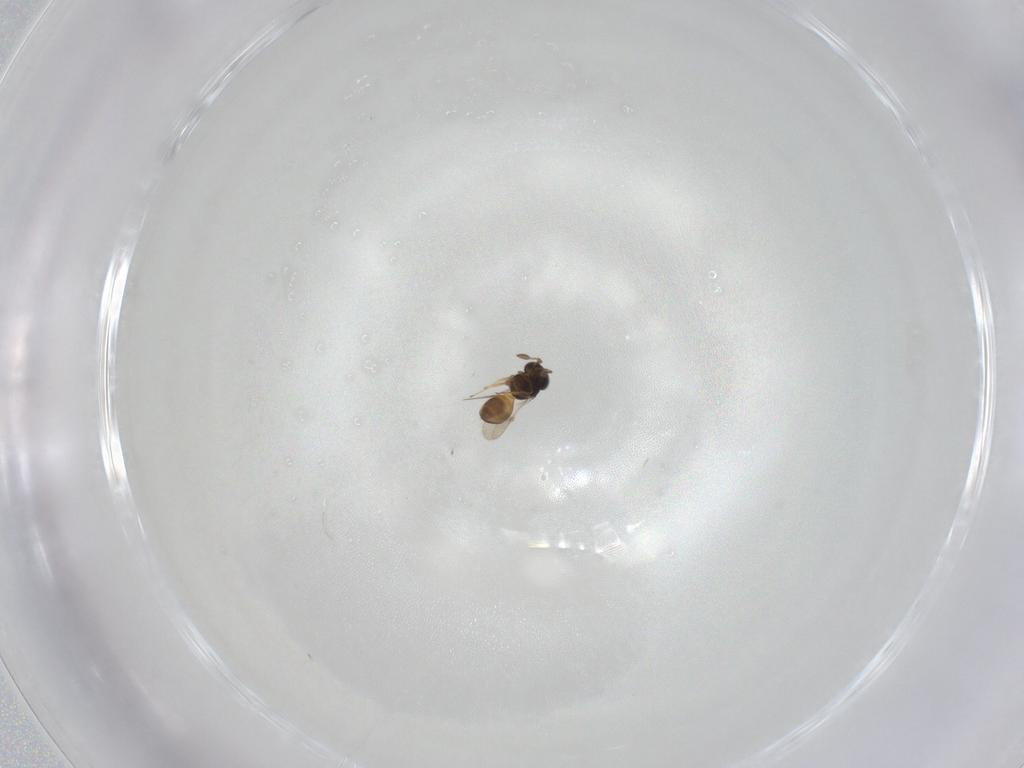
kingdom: Animalia
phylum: Arthropoda
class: Insecta
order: Hymenoptera
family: Scelionidae
